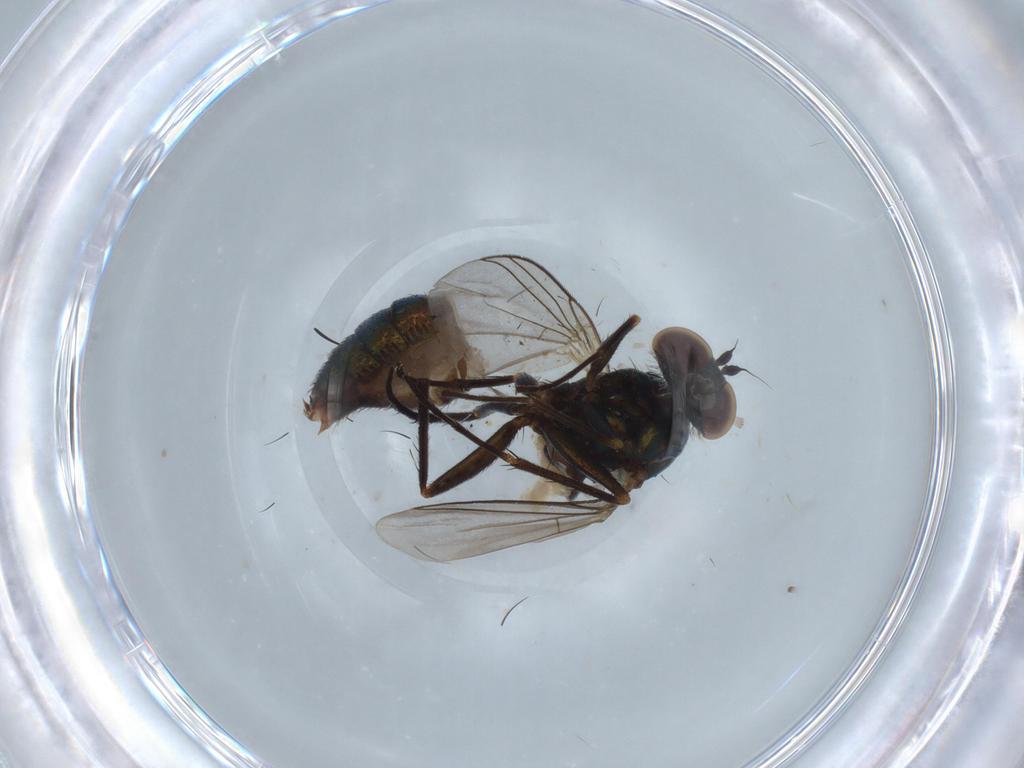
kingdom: Animalia
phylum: Arthropoda
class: Insecta
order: Diptera
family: Dolichopodidae
